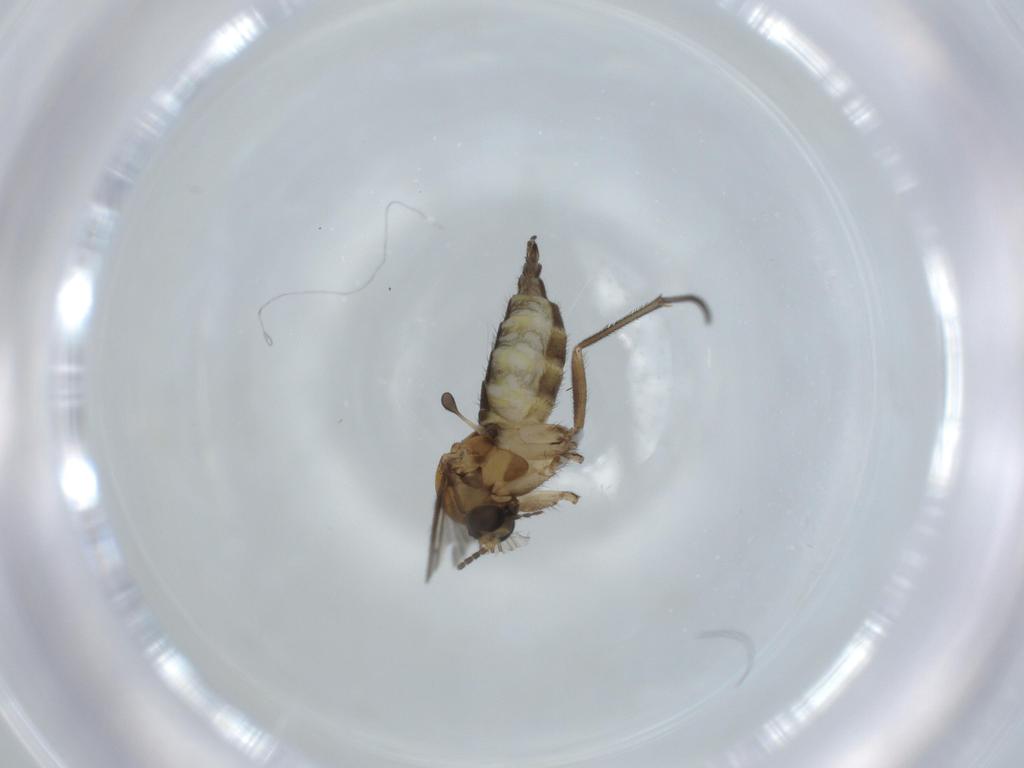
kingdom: Animalia
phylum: Arthropoda
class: Insecta
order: Diptera
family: Sciaridae
